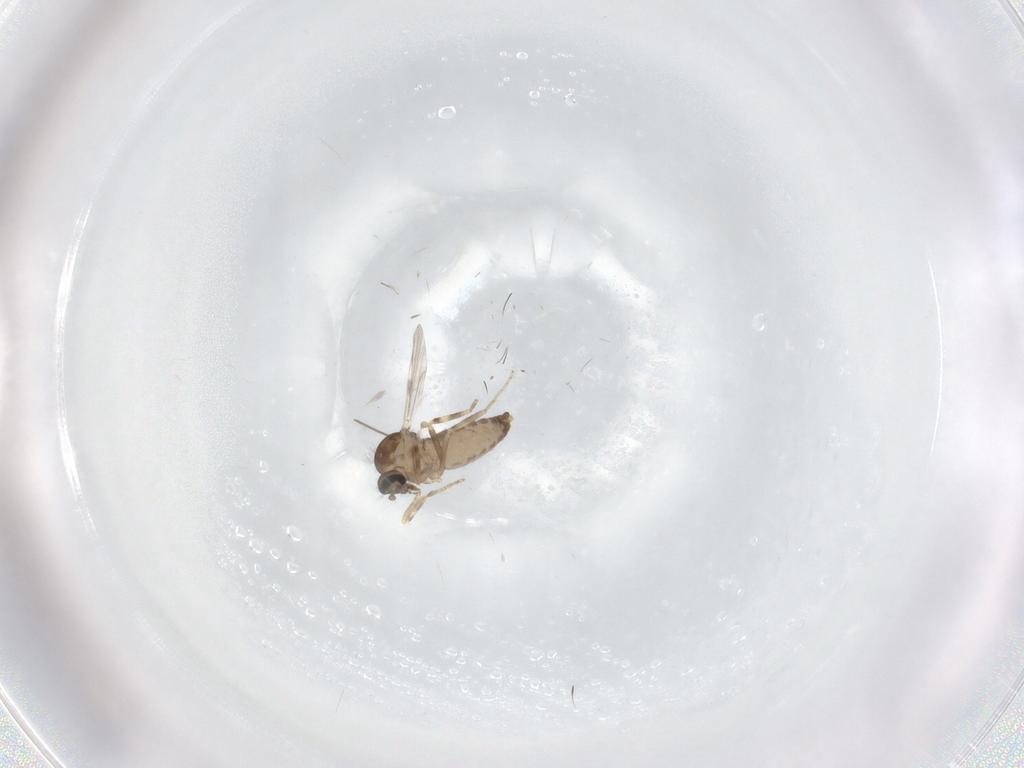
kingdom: Animalia
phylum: Arthropoda
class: Insecta
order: Diptera
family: Ceratopogonidae
